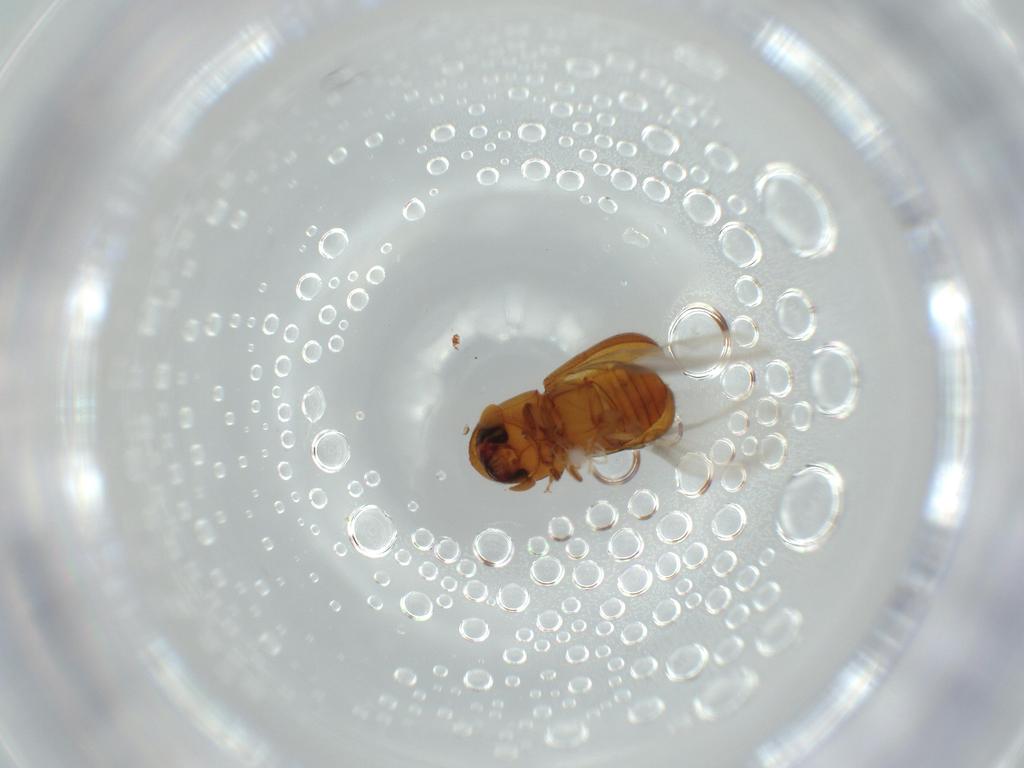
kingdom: Animalia
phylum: Arthropoda
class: Insecta
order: Coleoptera
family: Curculionidae
